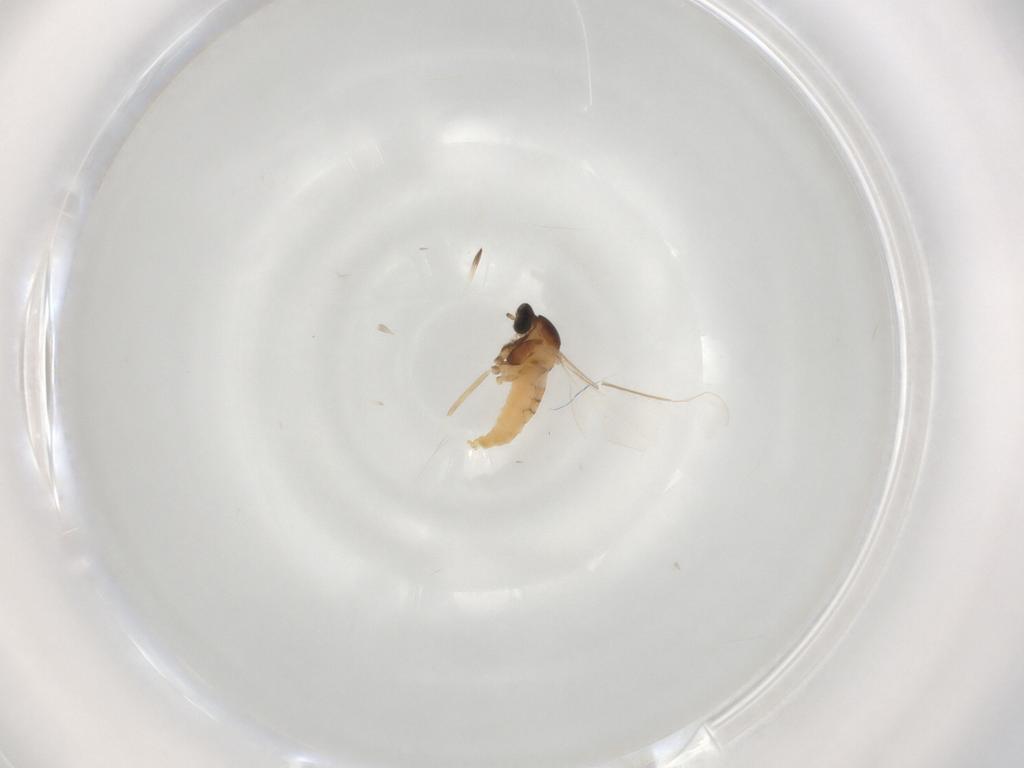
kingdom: Animalia
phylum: Arthropoda
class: Insecta
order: Diptera
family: Cecidomyiidae
